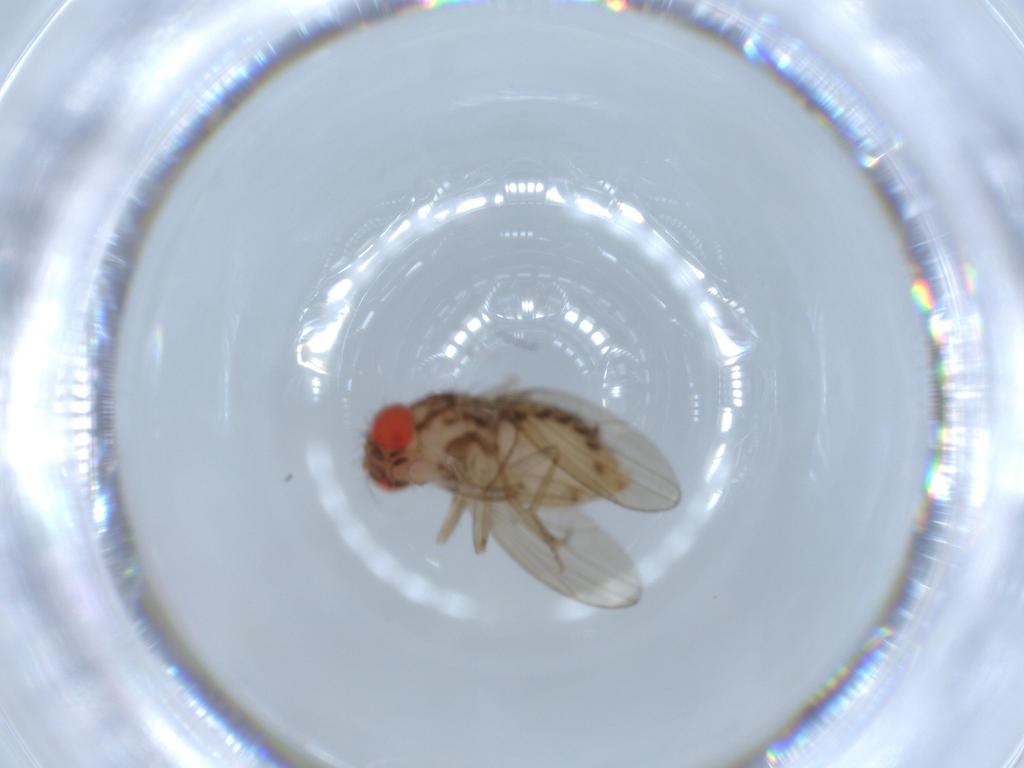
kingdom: Animalia
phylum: Arthropoda
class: Insecta
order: Diptera
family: Drosophilidae
